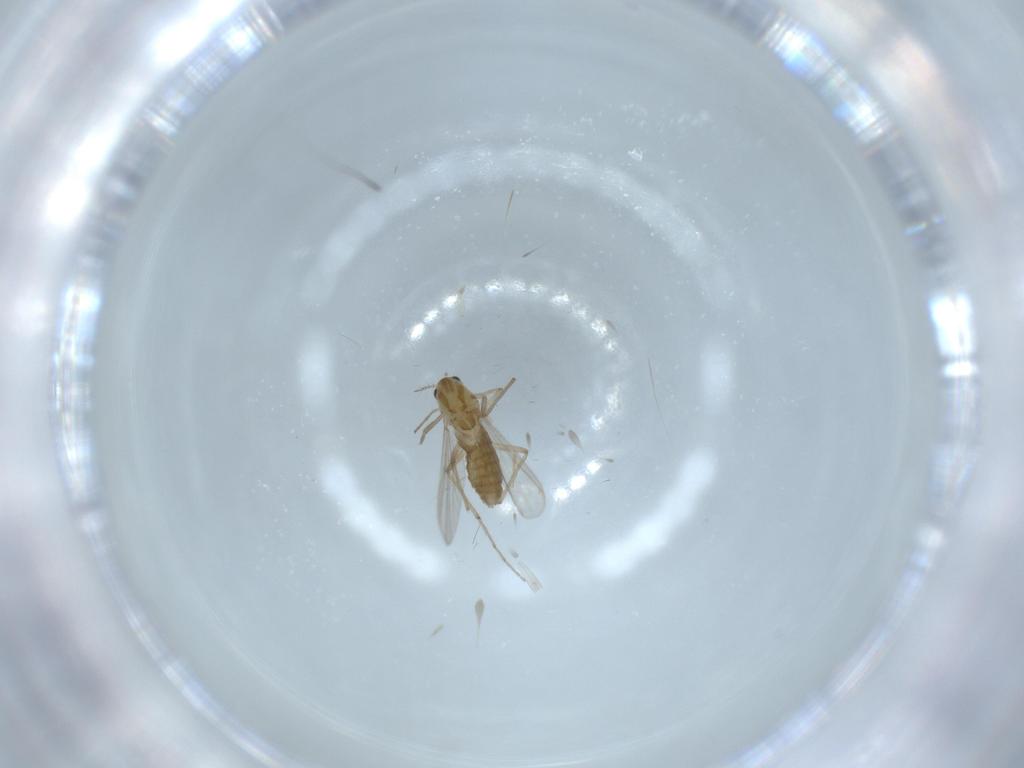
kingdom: Animalia
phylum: Arthropoda
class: Insecta
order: Diptera
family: Chironomidae
